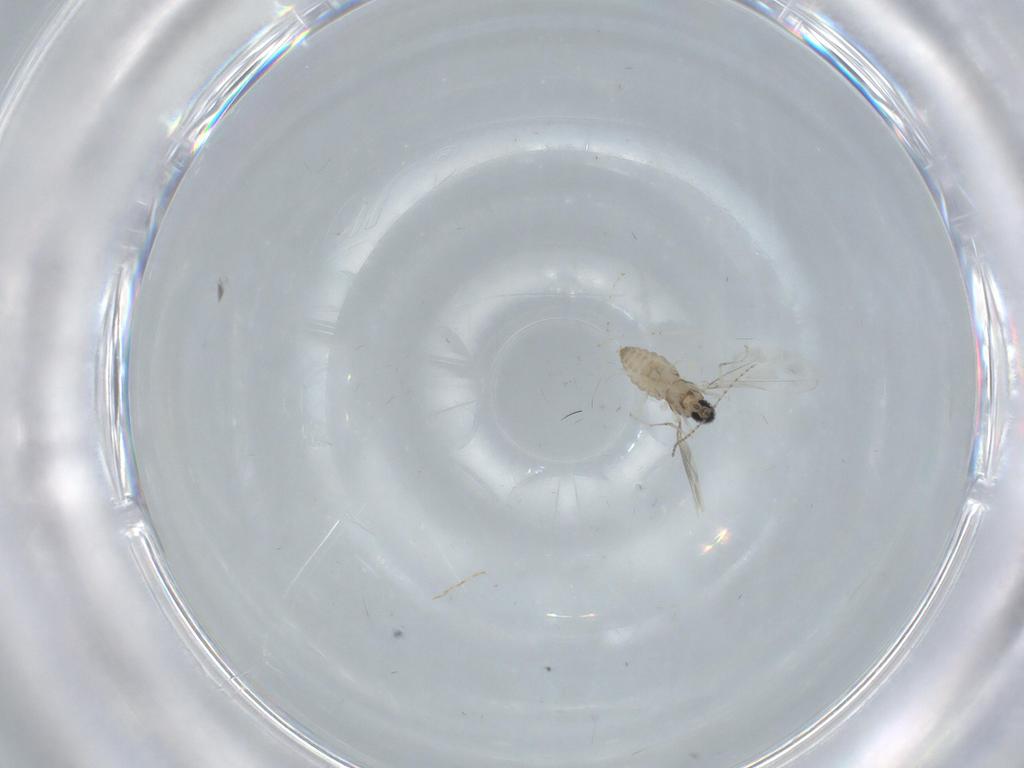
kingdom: Animalia
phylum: Arthropoda
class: Insecta
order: Diptera
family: Cecidomyiidae
